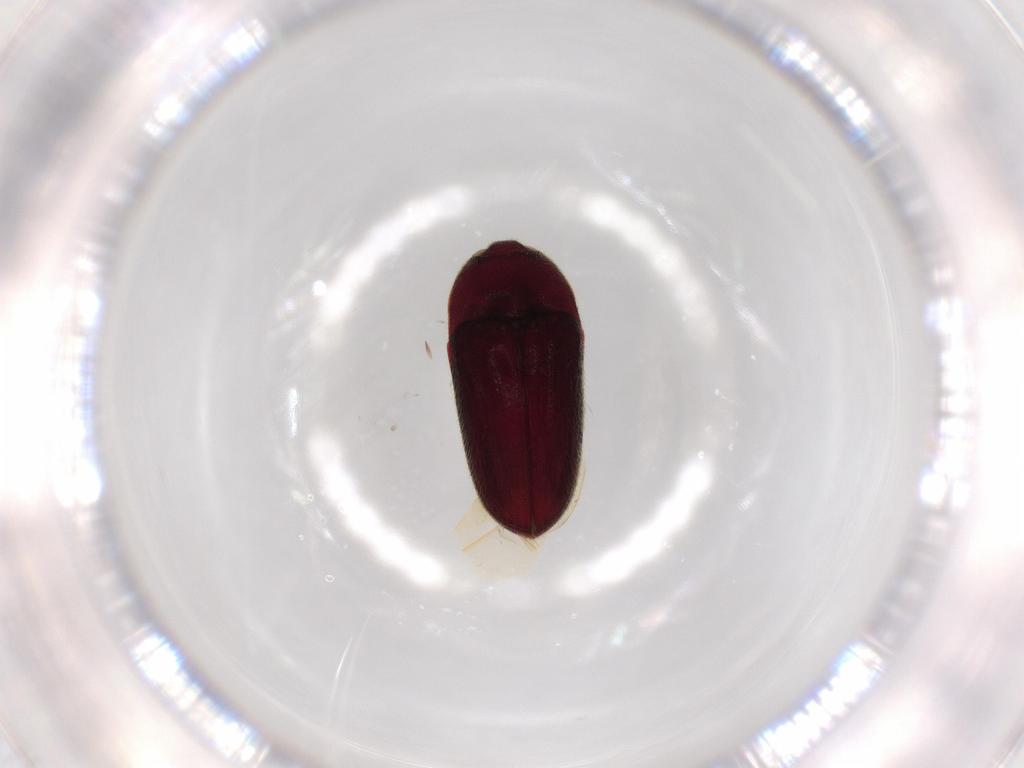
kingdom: Animalia
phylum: Arthropoda
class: Insecta
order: Coleoptera
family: Throscidae
